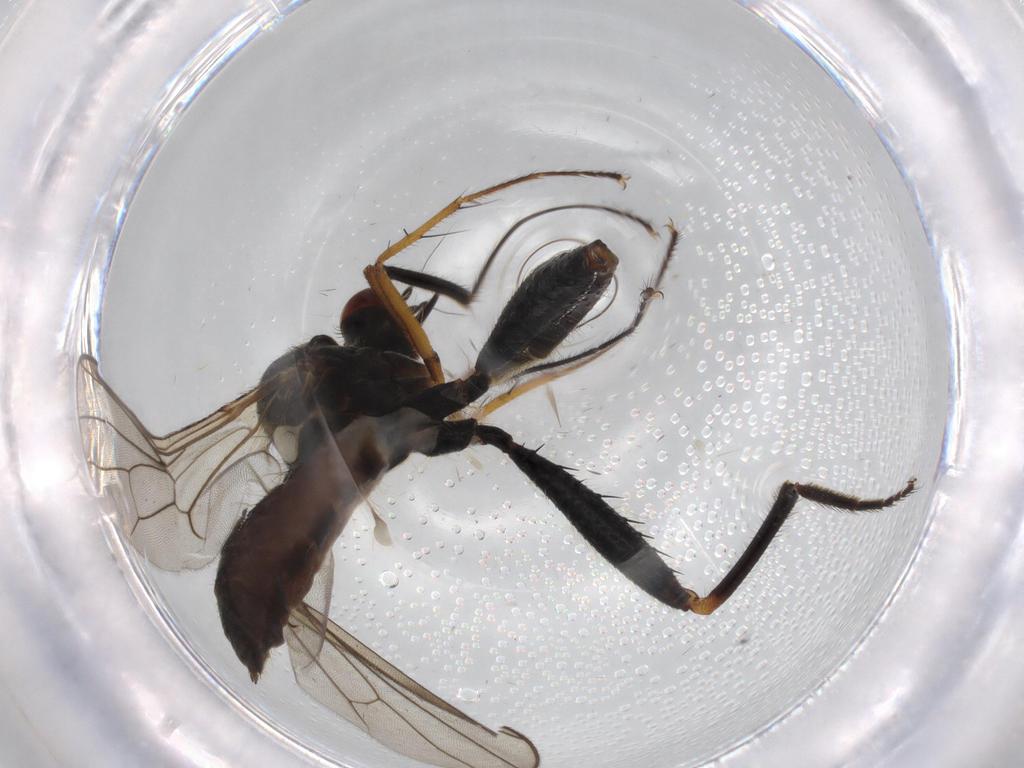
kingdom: Animalia
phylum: Arthropoda
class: Insecta
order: Diptera
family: Hybotidae
